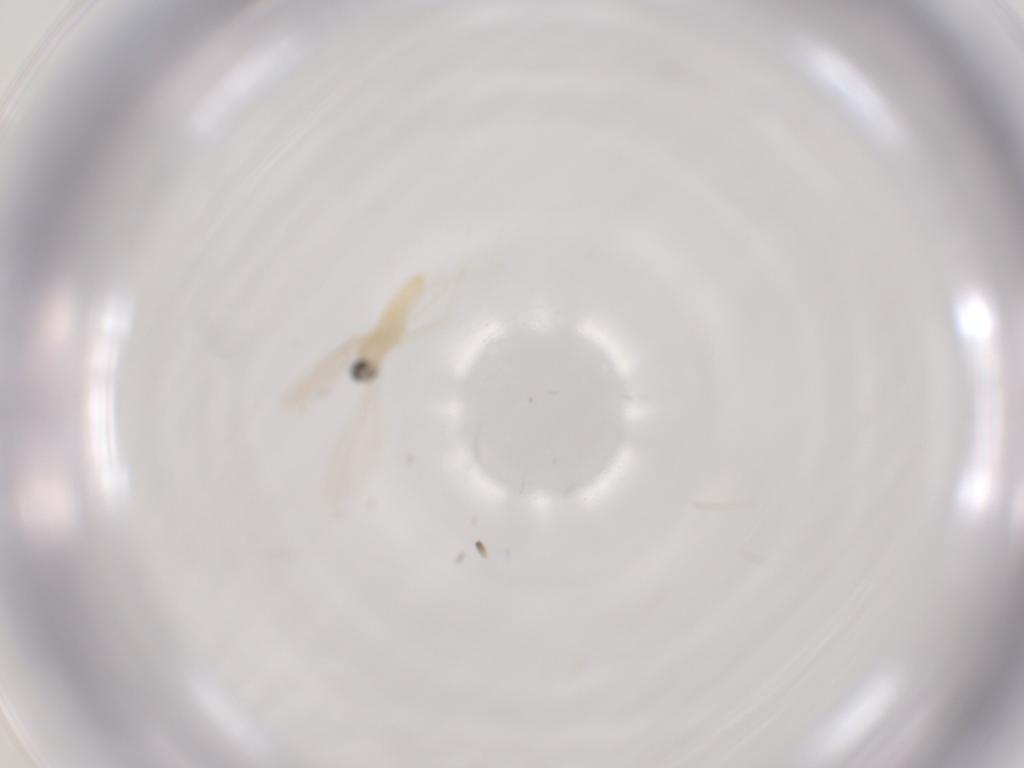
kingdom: Animalia
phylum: Arthropoda
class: Insecta
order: Diptera
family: Cecidomyiidae
